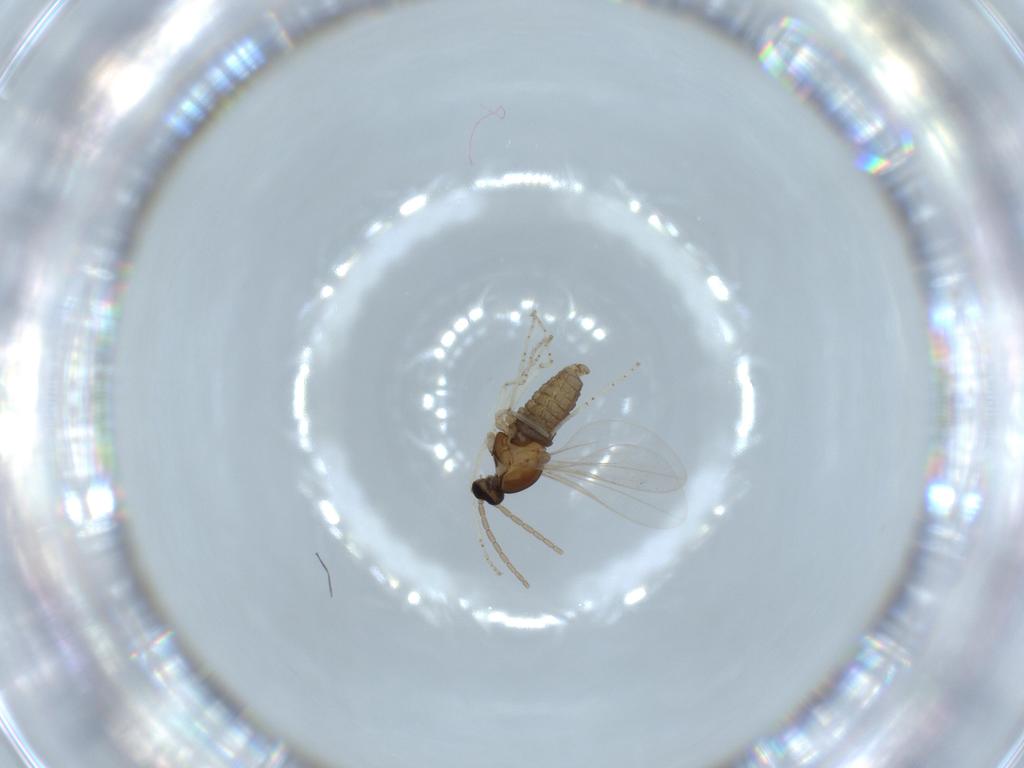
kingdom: Animalia
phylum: Arthropoda
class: Insecta
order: Diptera
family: Cecidomyiidae
